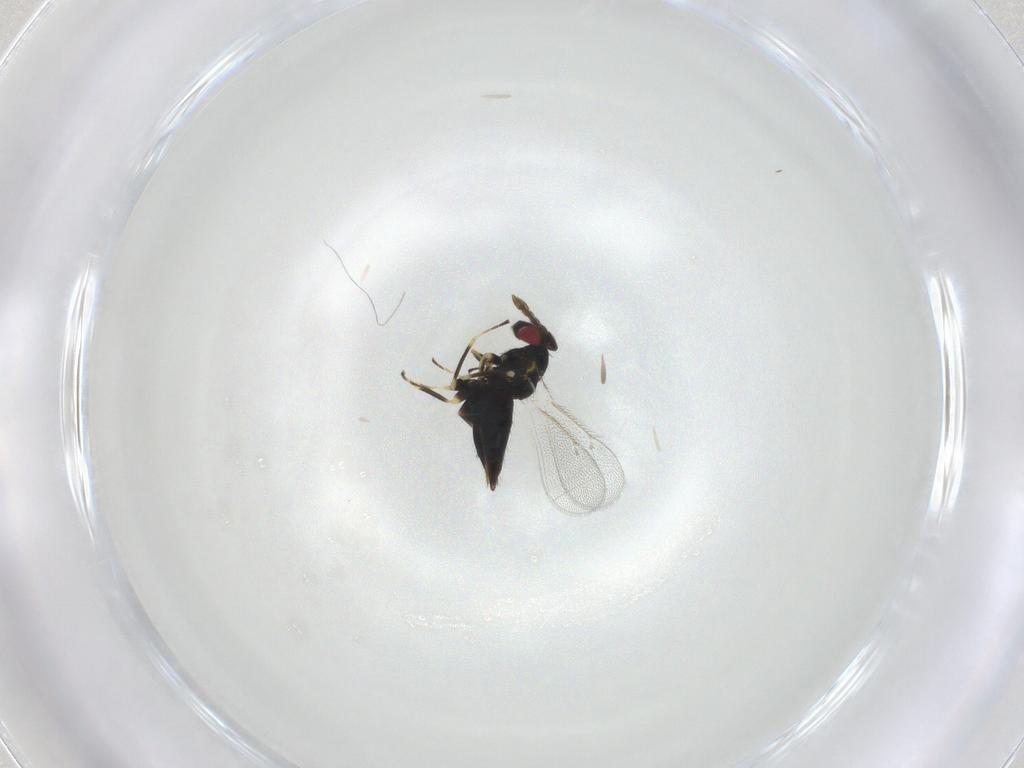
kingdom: Animalia
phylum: Arthropoda
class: Insecta
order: Hymenoptera
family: Eulophidae
